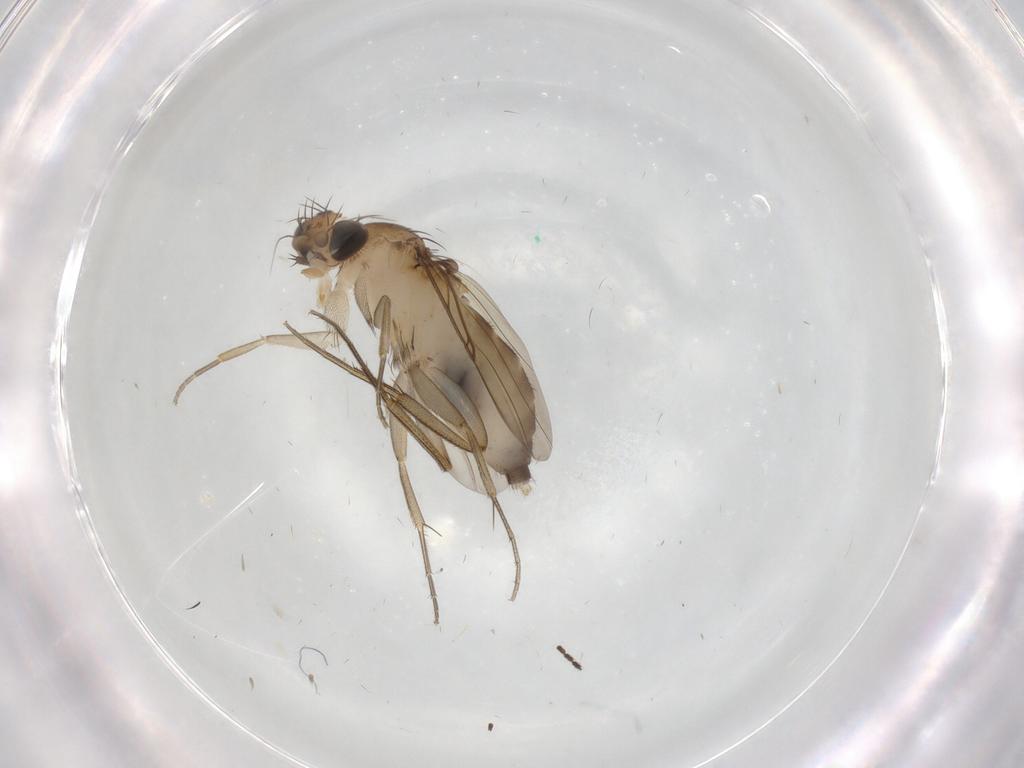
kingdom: Animalia
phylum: Arthropoda
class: Insecta
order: Diptera
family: Phoridae
